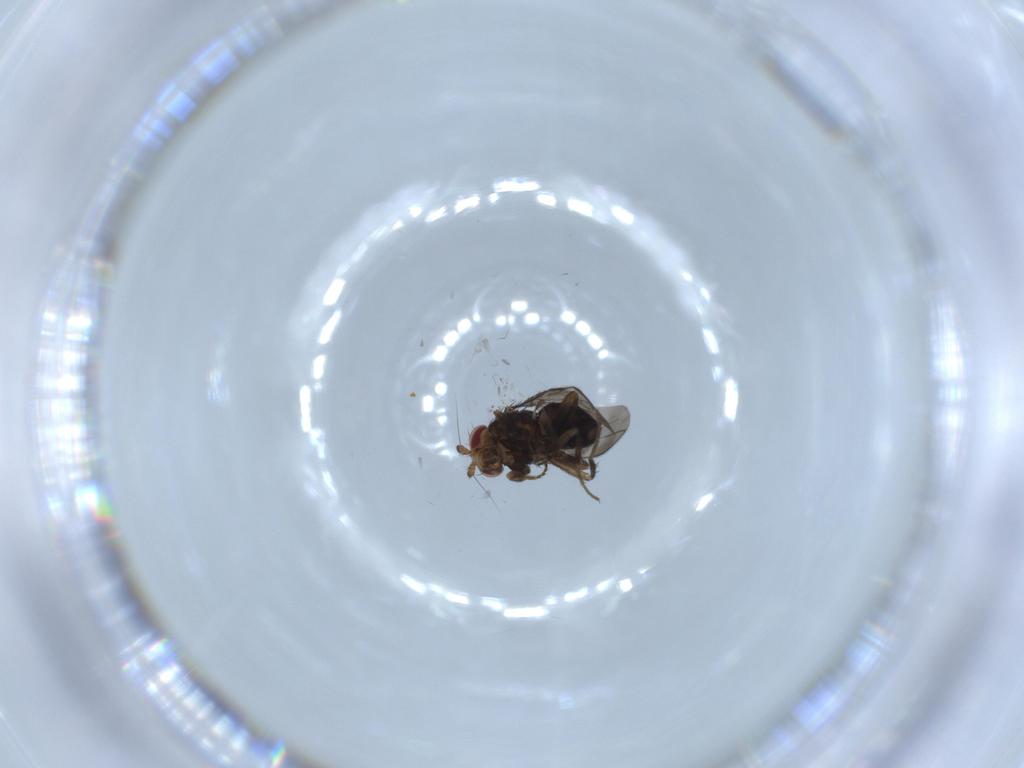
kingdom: Animalia
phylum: Arthropoda
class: Insecta
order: Diptera
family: Sphaeroceridae
